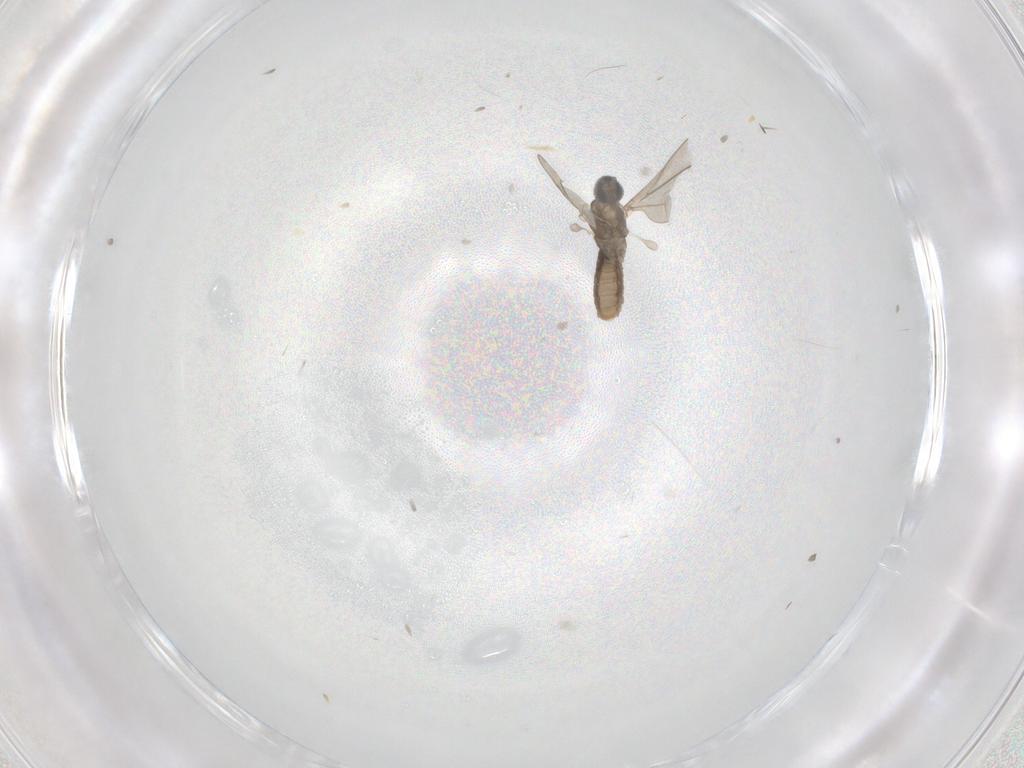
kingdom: Animalia
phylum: Arthropoda
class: Insecta
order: Diptera
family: Cecidomyiidae
